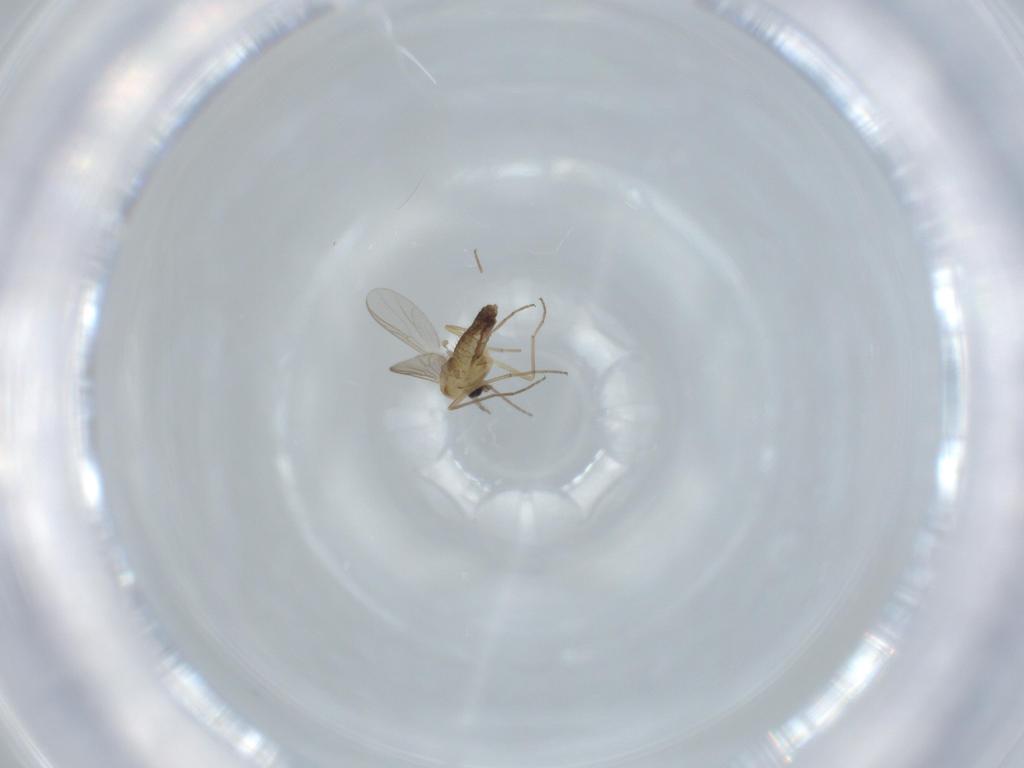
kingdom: Animalia
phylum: Arthropoda
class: Insecta
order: Diptera
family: Chironomidae
